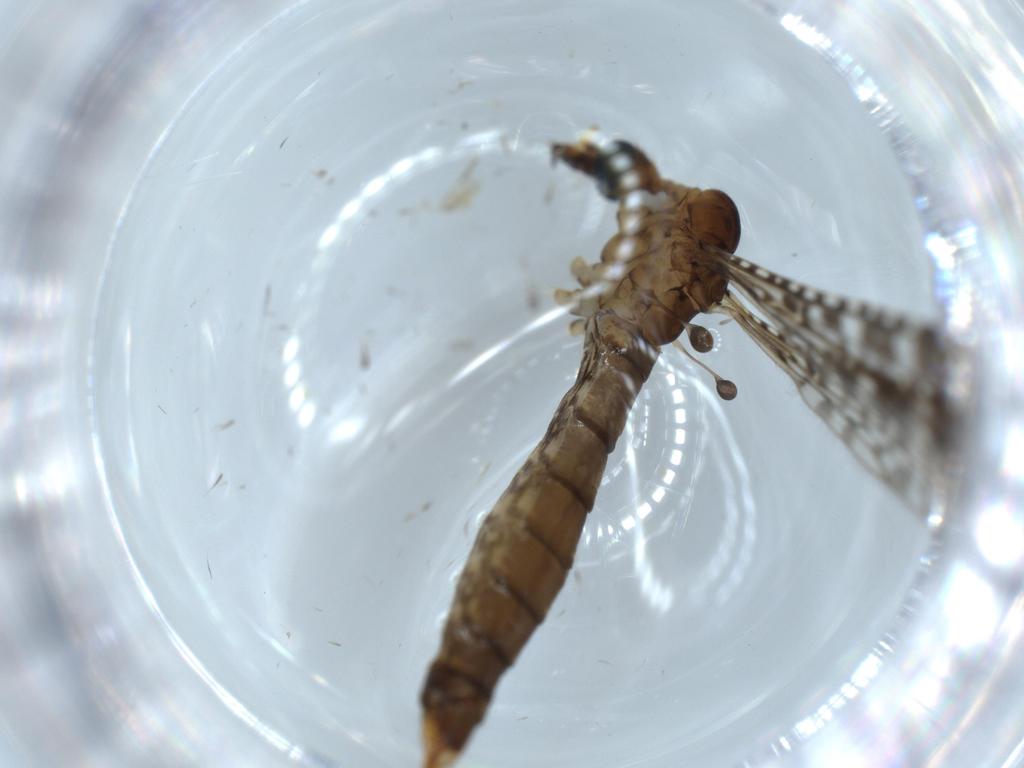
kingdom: Animalia
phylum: Arthropoda
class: Insecta
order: Diptera
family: Limoniidae
